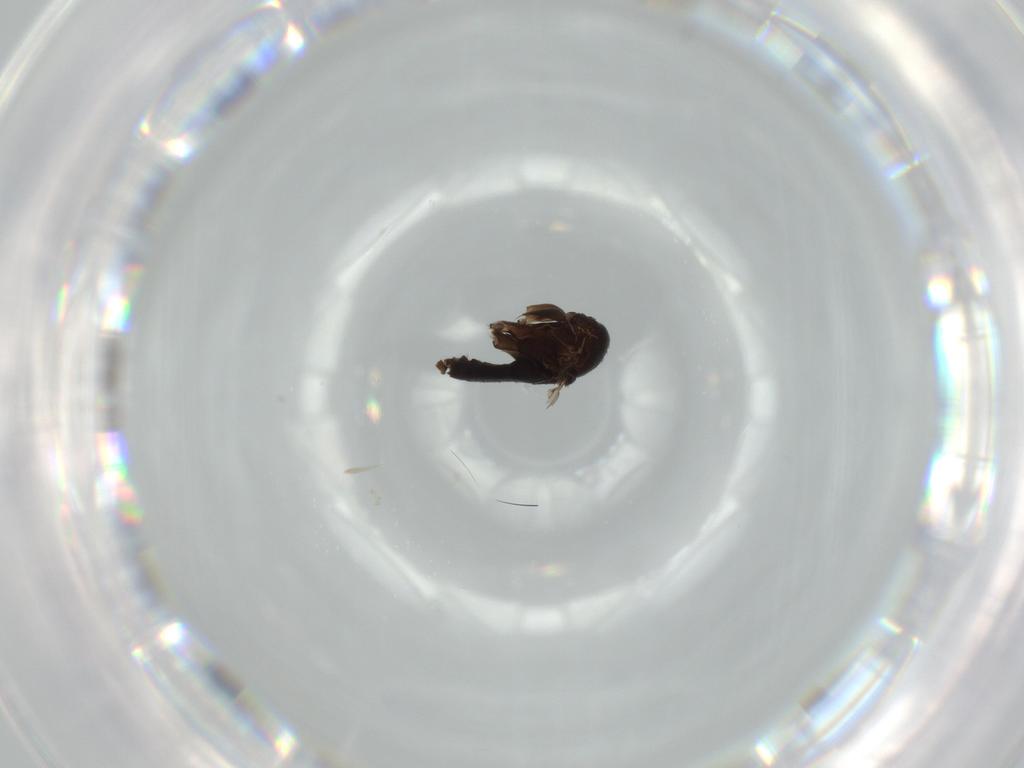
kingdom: Animalia
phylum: Arthropoda
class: Insecta
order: Diptera
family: Phoridae
